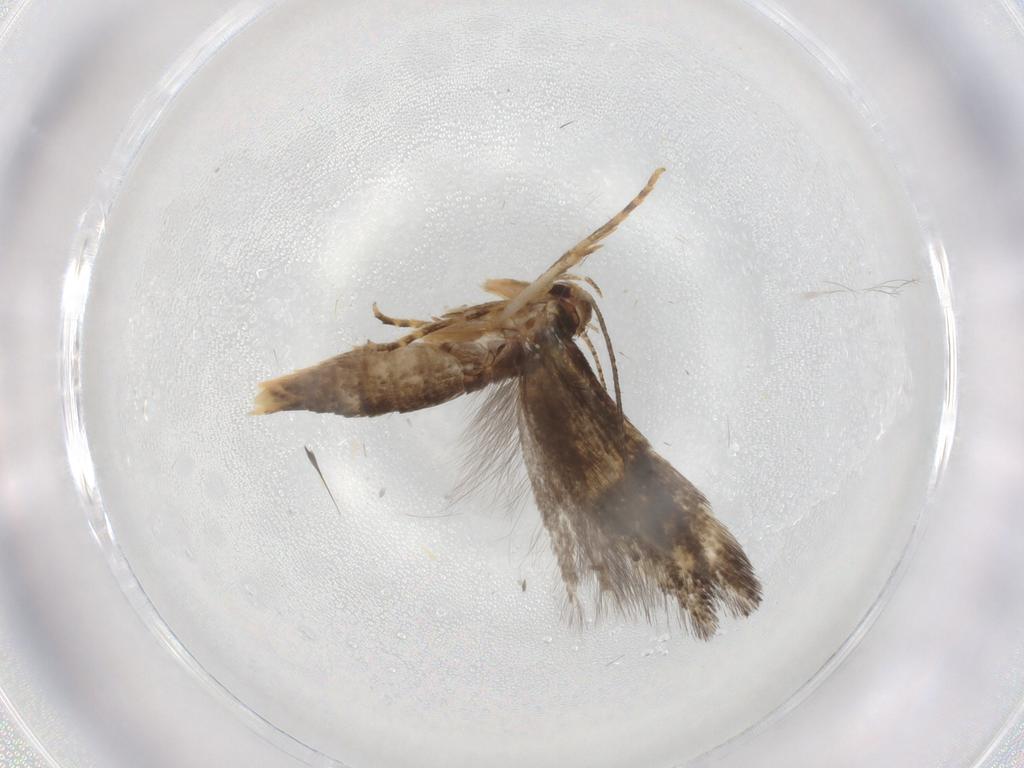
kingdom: Animalia
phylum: Arthropoda
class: Insecta
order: Lepidoptera
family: Elachistidae
